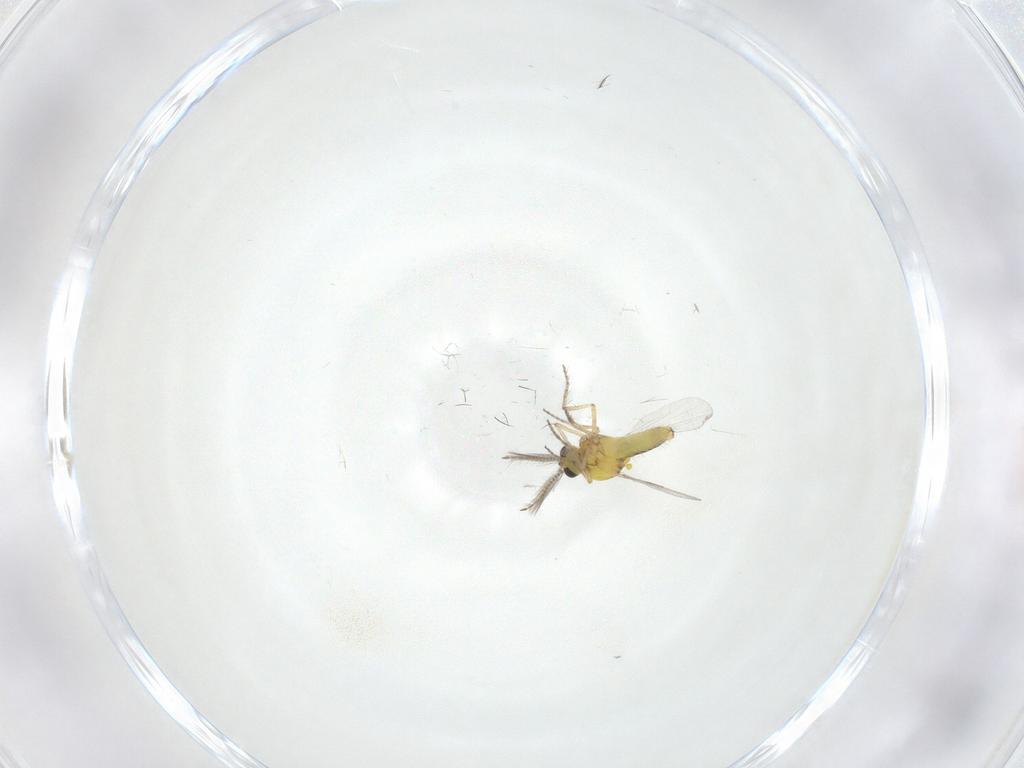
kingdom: Animalia
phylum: Arthropoda
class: Insecta
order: Diptera
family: Ceratopogonidae
